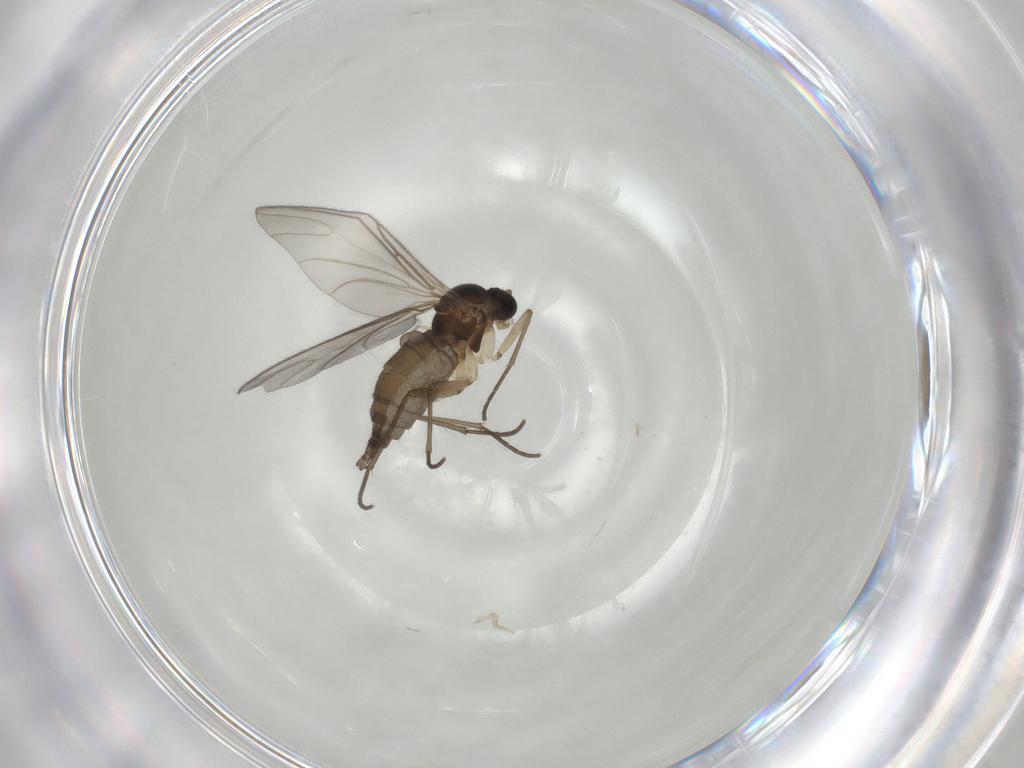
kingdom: Animalia
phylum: Arthropoda
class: Insecta
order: Diptera
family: Sciaridae
